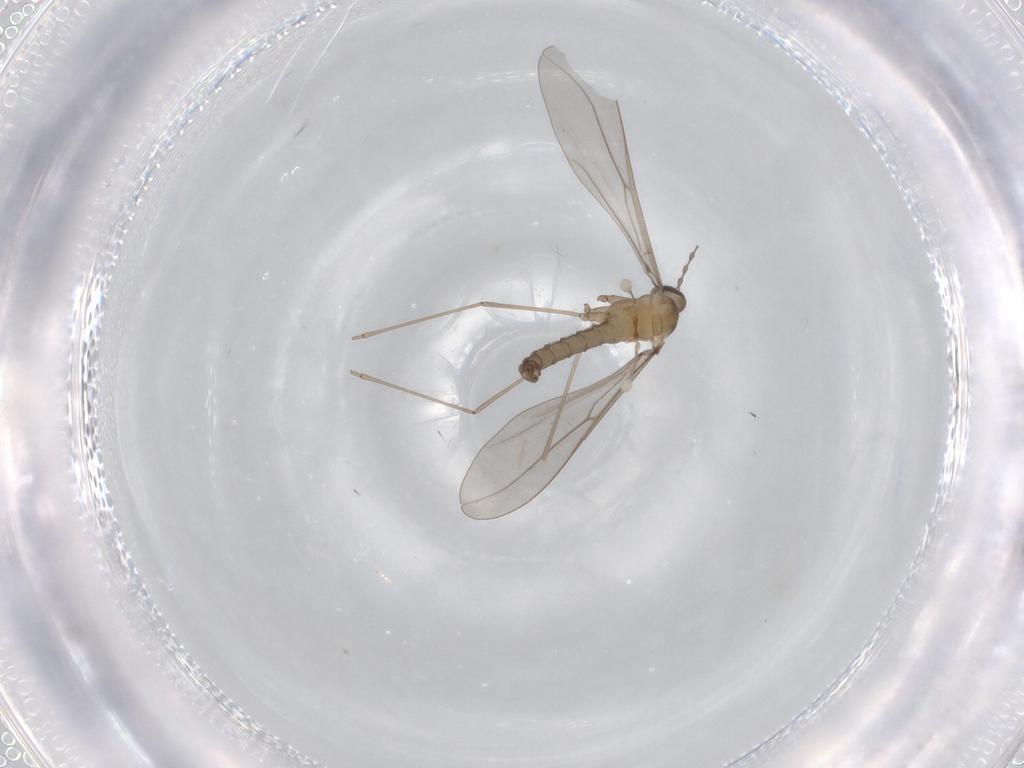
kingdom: Animalia
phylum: Arthropoda
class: Insecta
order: Diptera
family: Cecidomyiidae
